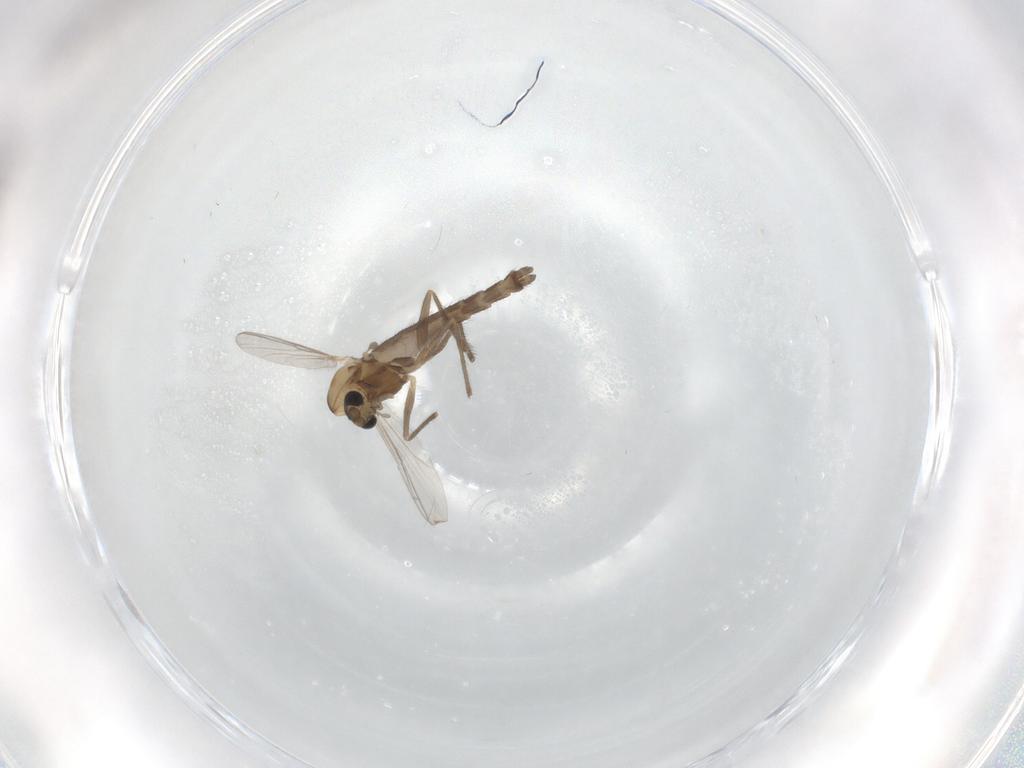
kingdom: Animalia
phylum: Arthropoda
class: Insecta
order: Diptera
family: Chironomidae
